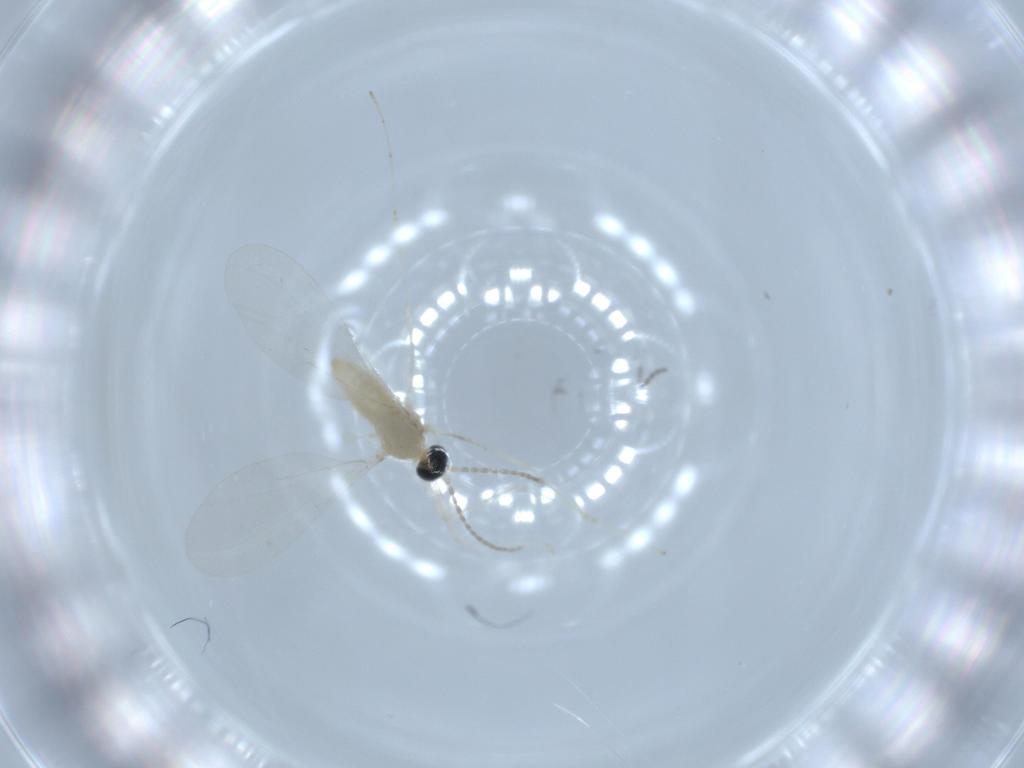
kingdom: Animalia
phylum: Arthropoda
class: Insecta
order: Diptera
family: Cecidomyiidae
